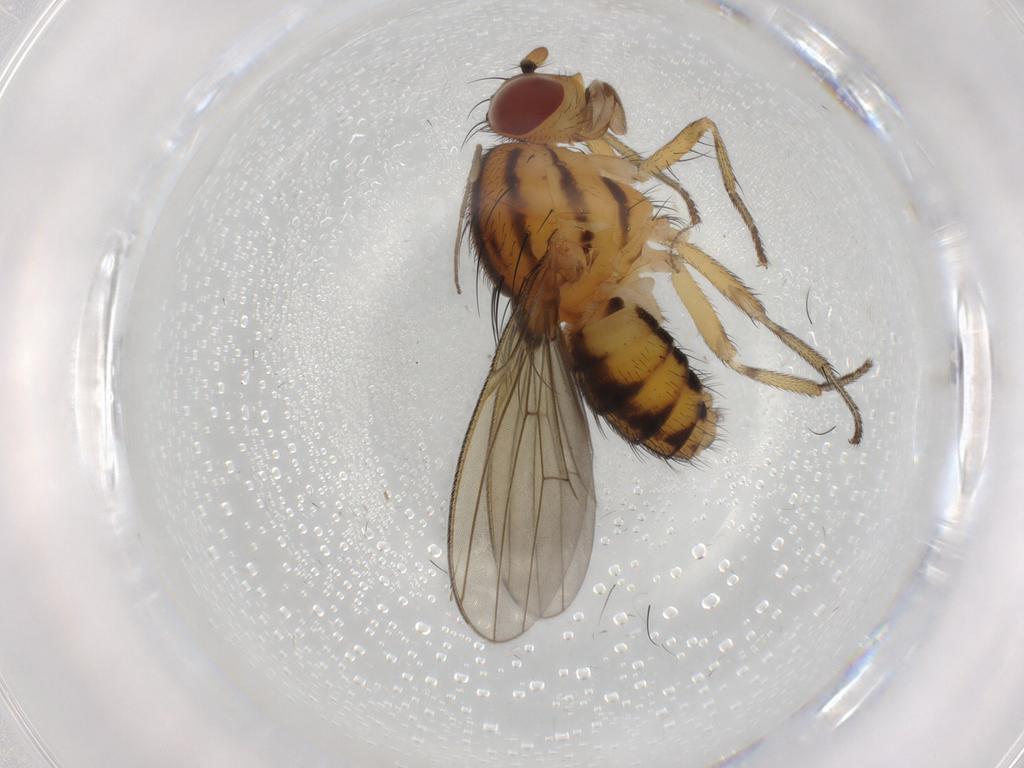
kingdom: Animalia
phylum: Arthropoda
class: Insecta
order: Diptera
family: Ceratopogonidae
